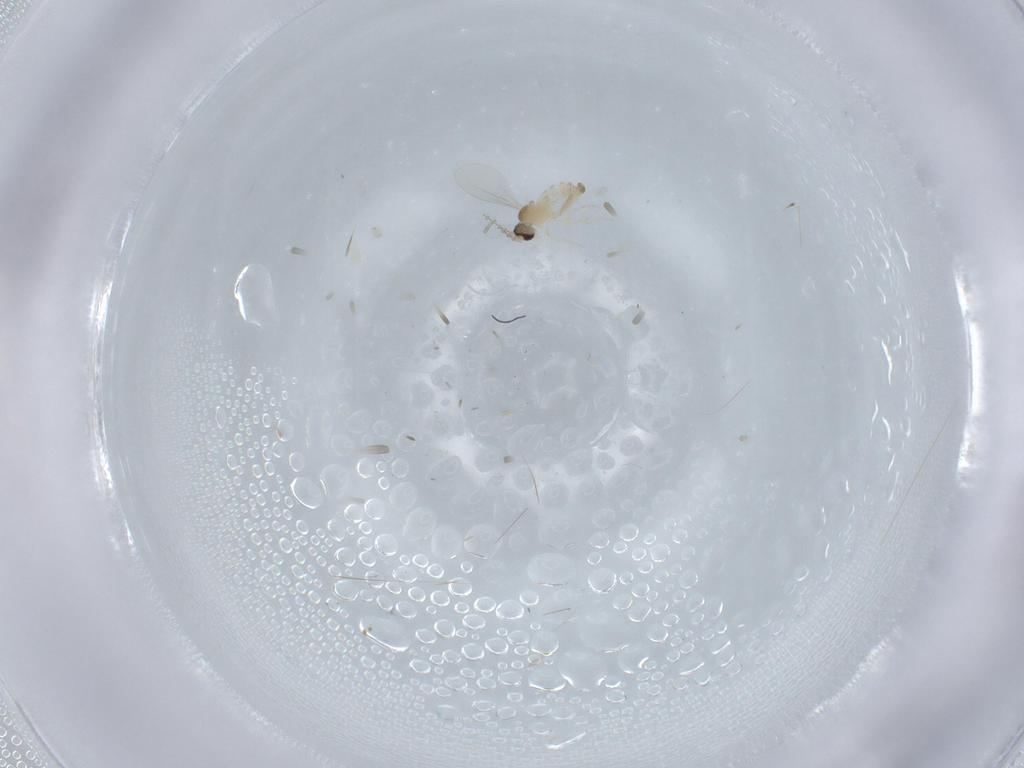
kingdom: Animalia
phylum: Arthropoda
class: Insecta
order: Diptera
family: Cecidomyiidae
